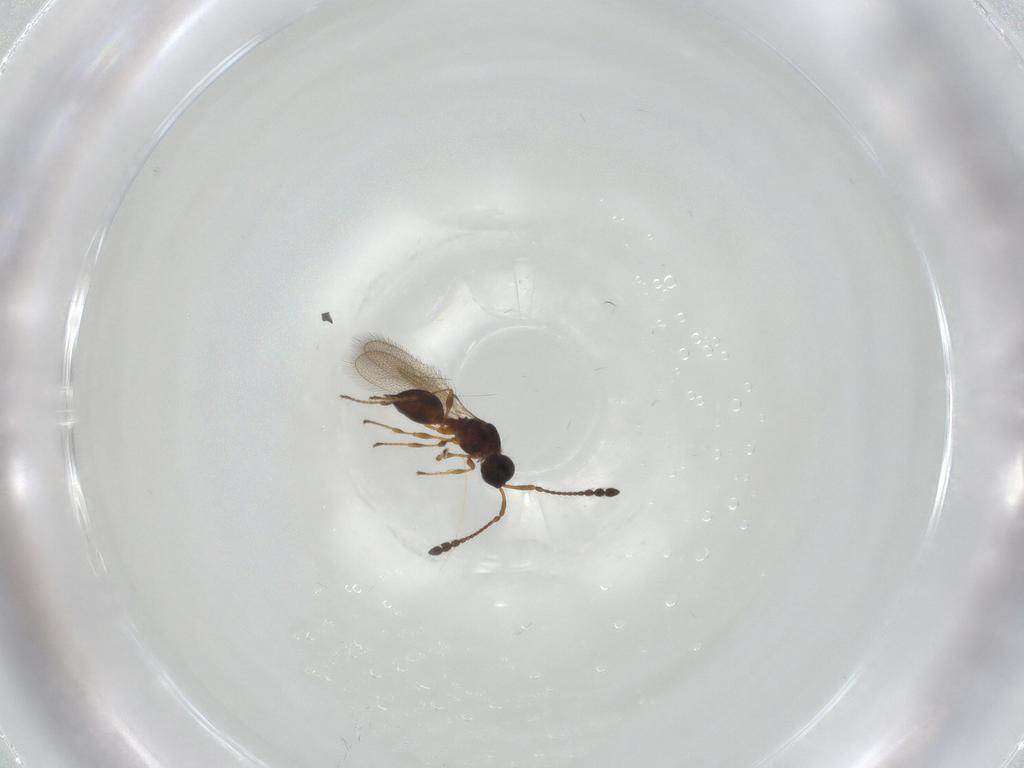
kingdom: Animalia
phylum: Arthropoda
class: Insecta
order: Hymenoptera
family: Diapriidae
